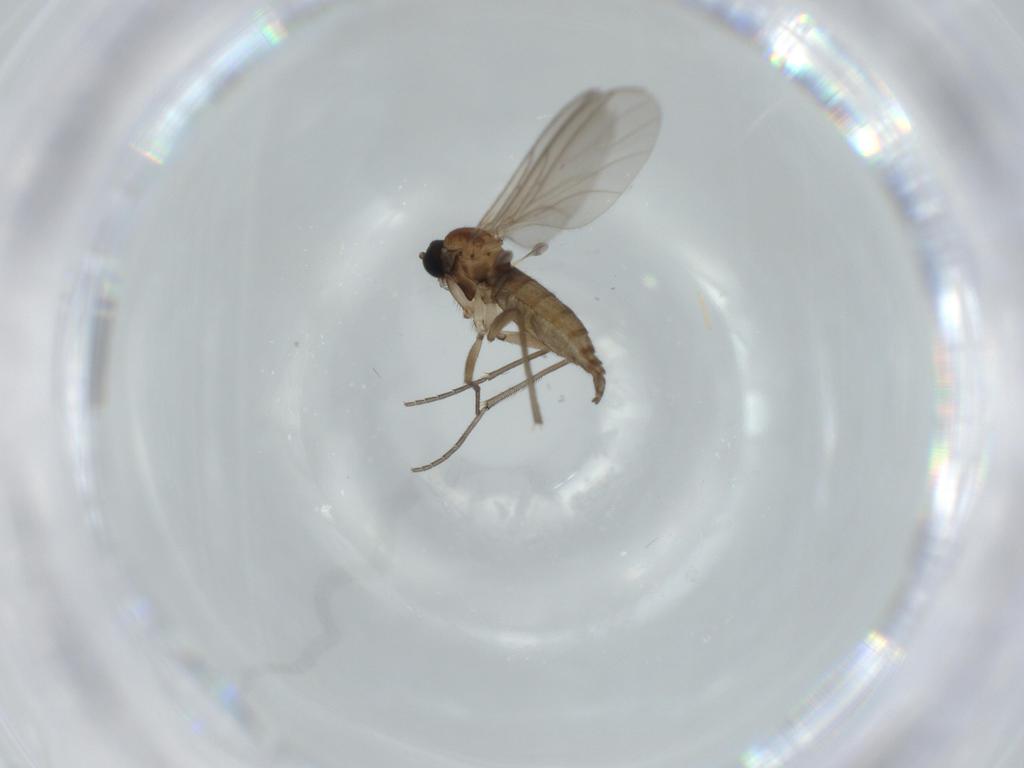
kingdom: Animalia
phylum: Arthropoda
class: Insecta
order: Diptera
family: Sciaridae
